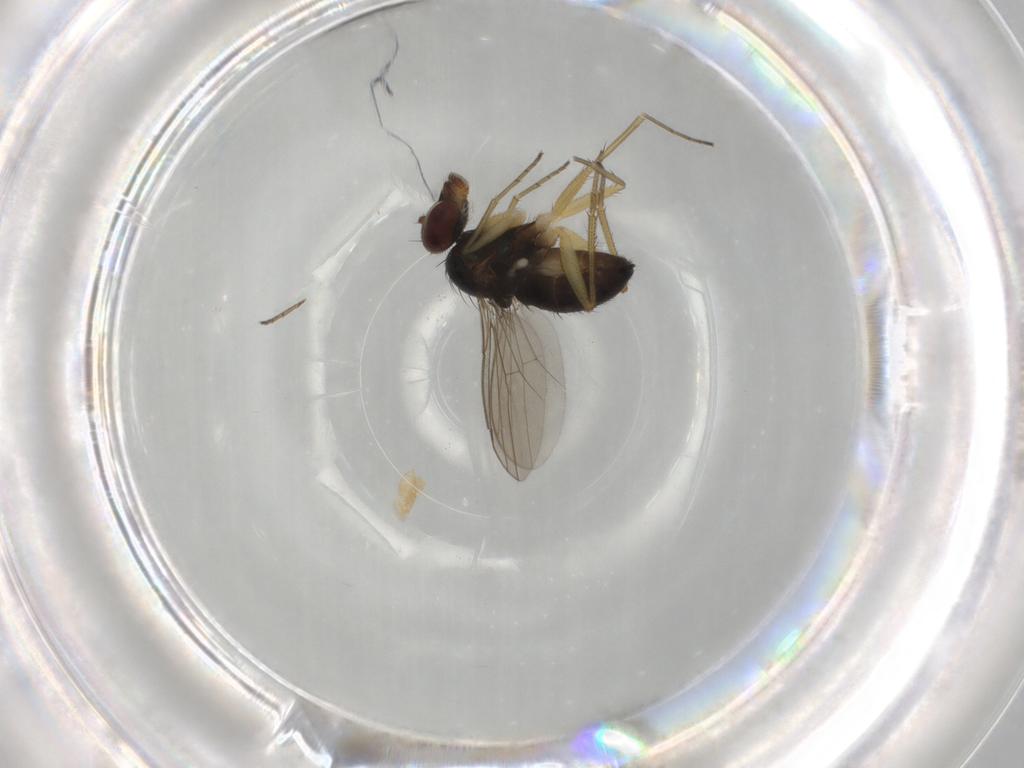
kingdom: Animalia
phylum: Arthropoda
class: Insecta
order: Diptera
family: Dolichopodidae
